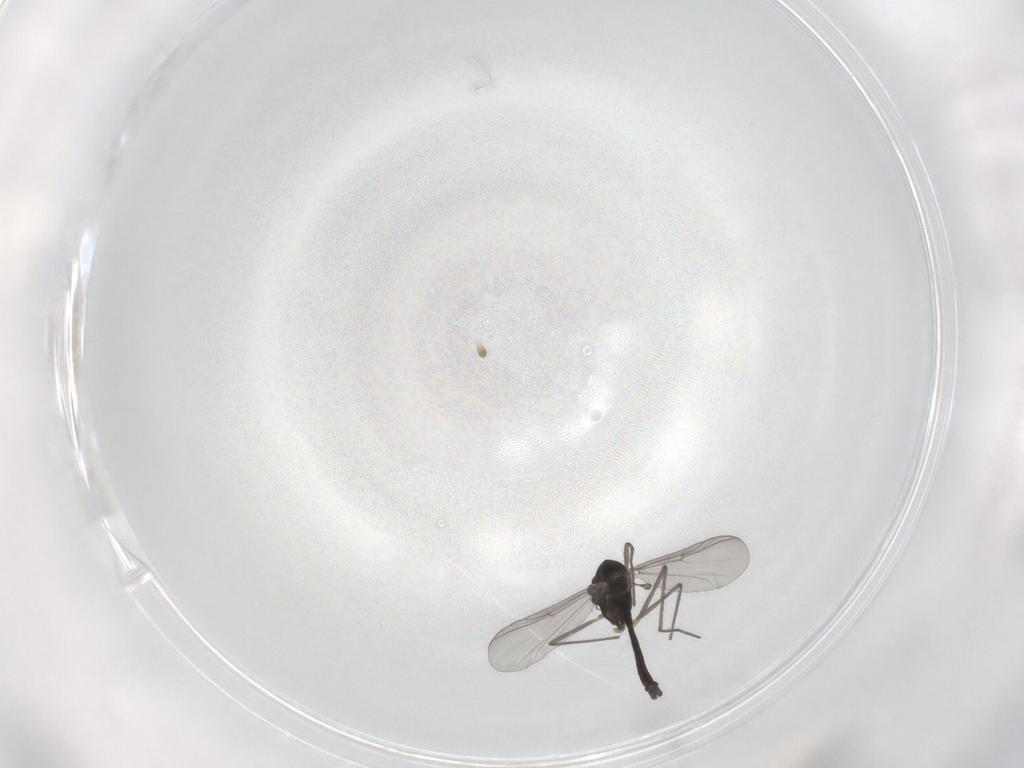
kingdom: Animalia
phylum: Arthropoda
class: Insecta
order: Diptera
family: Chironomidae
